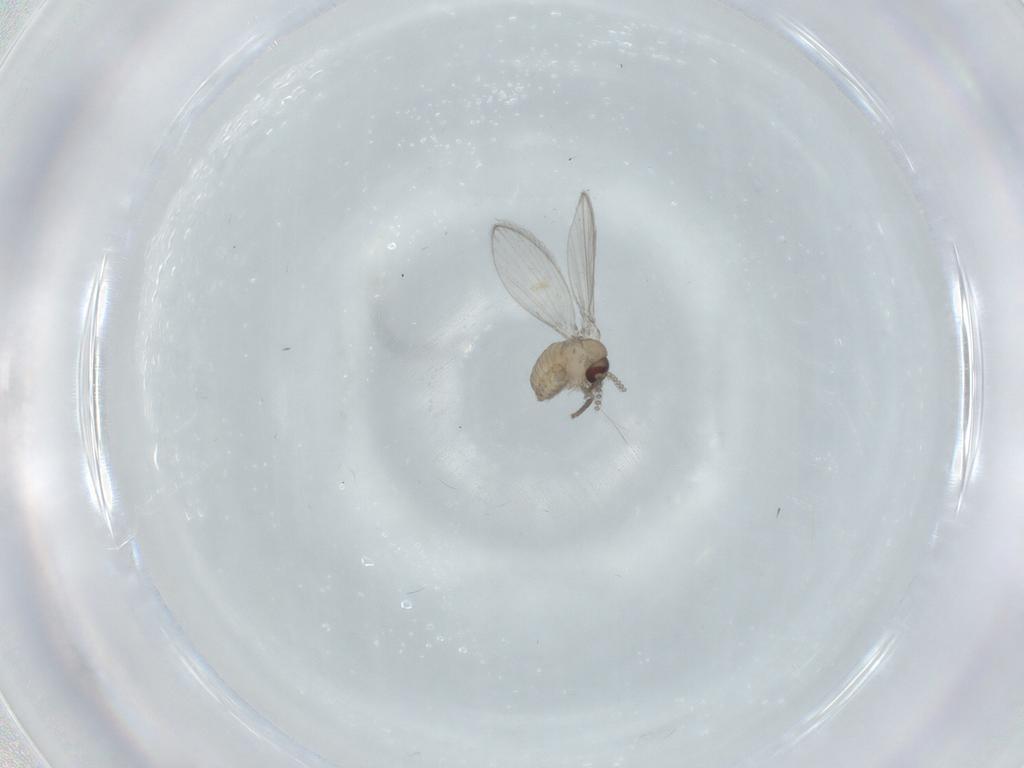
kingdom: Animalia
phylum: Arthropoda
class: Insecta
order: Diptera
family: Psychodidae
